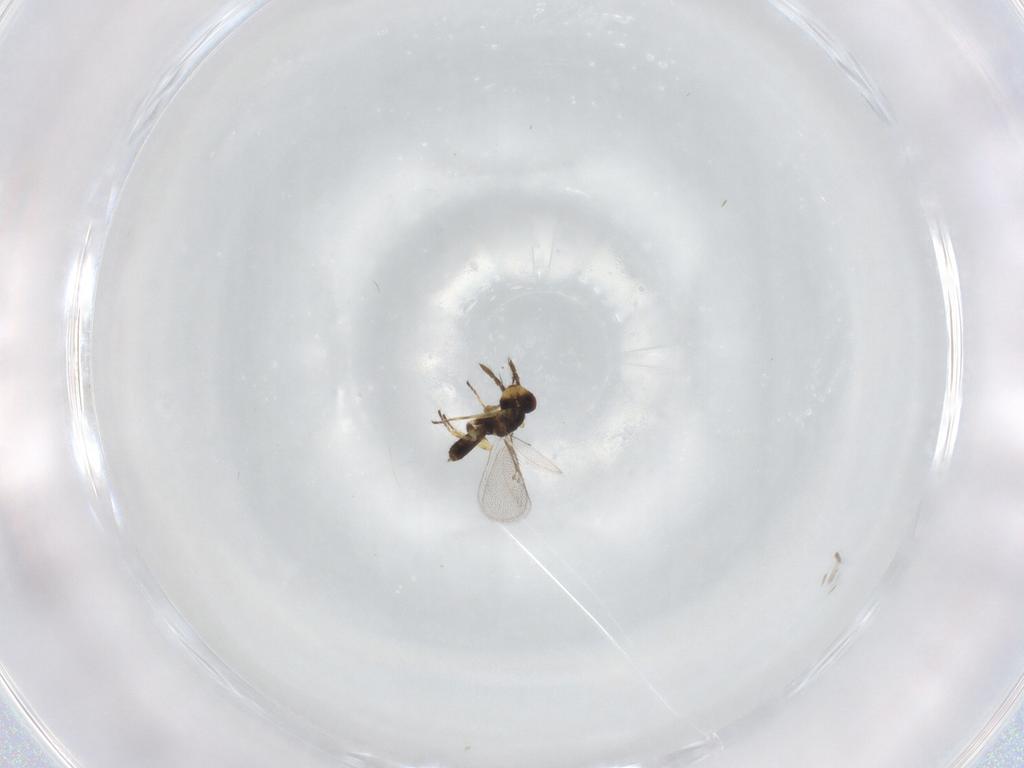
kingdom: Animalia
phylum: Arthropoda
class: Insecta
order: Hymenoptera
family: Eulophidae
